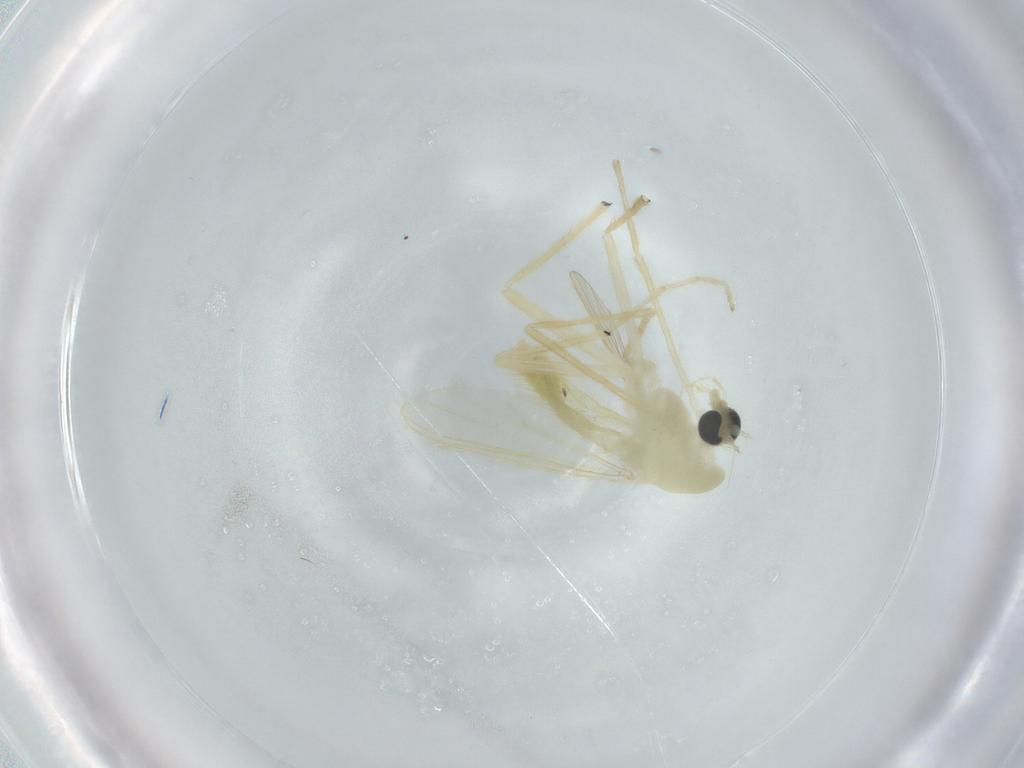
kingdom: Animalia
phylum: Arthropoda
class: Insecta
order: Diptera
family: Chironomidae
